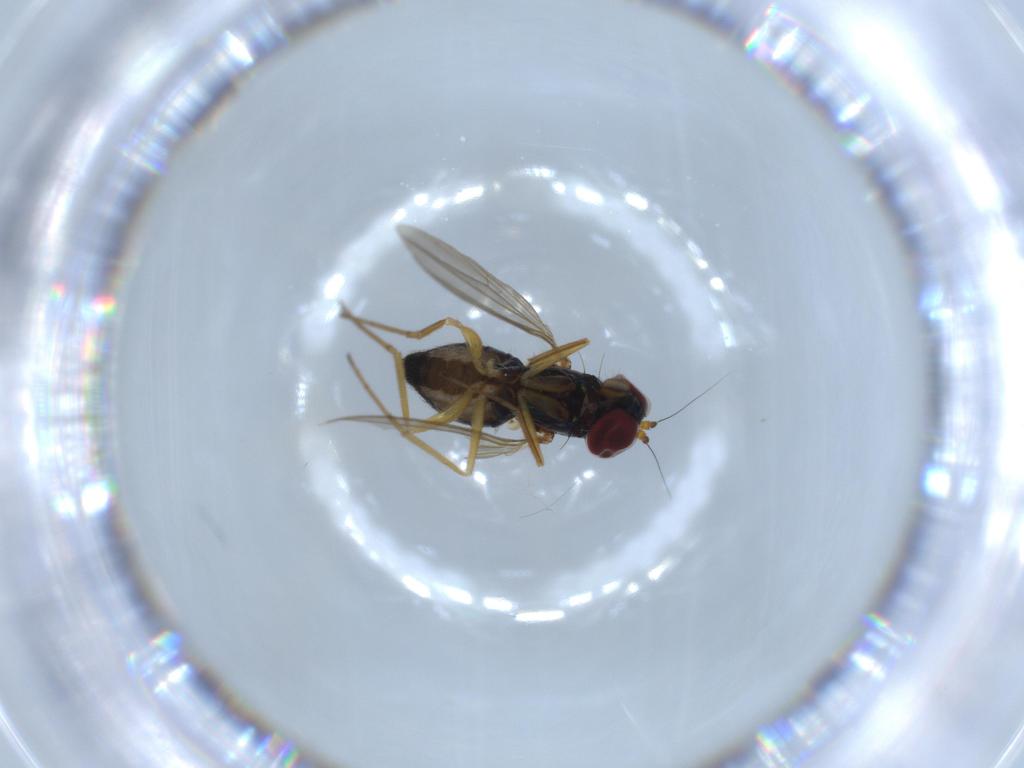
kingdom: Animalia
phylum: Arthropoda
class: Insecta
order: Diptera
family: Dolichopodidae
